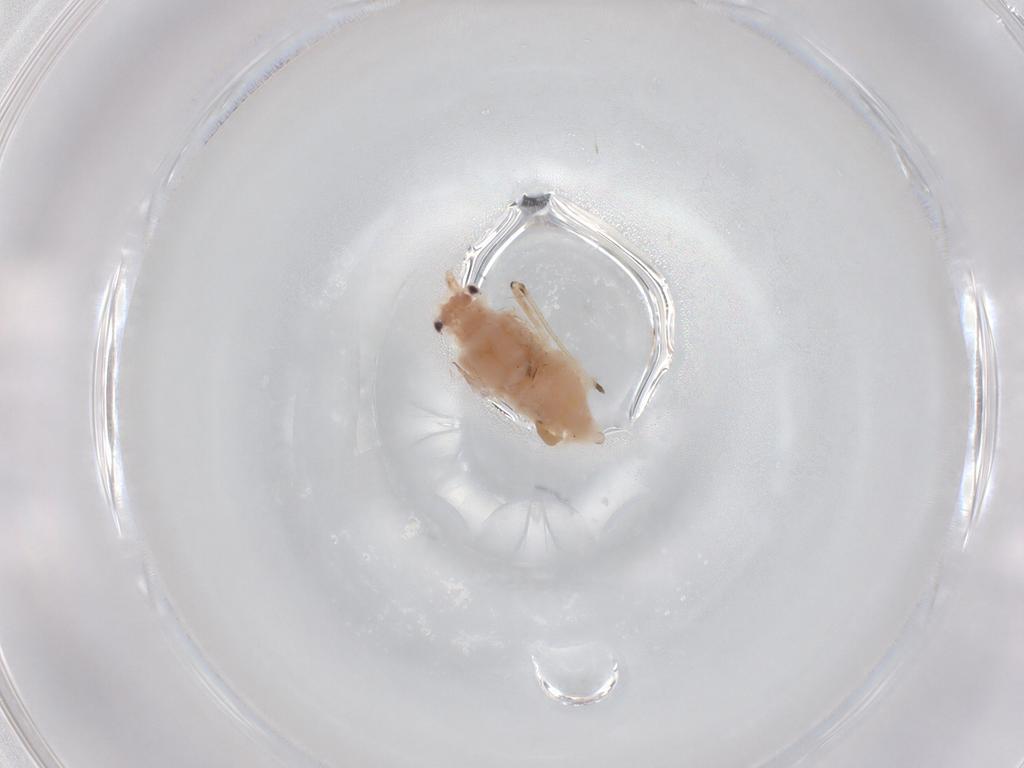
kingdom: Animalia
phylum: Arthropoda
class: Insecta
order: Hemiptera
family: Aphididae
